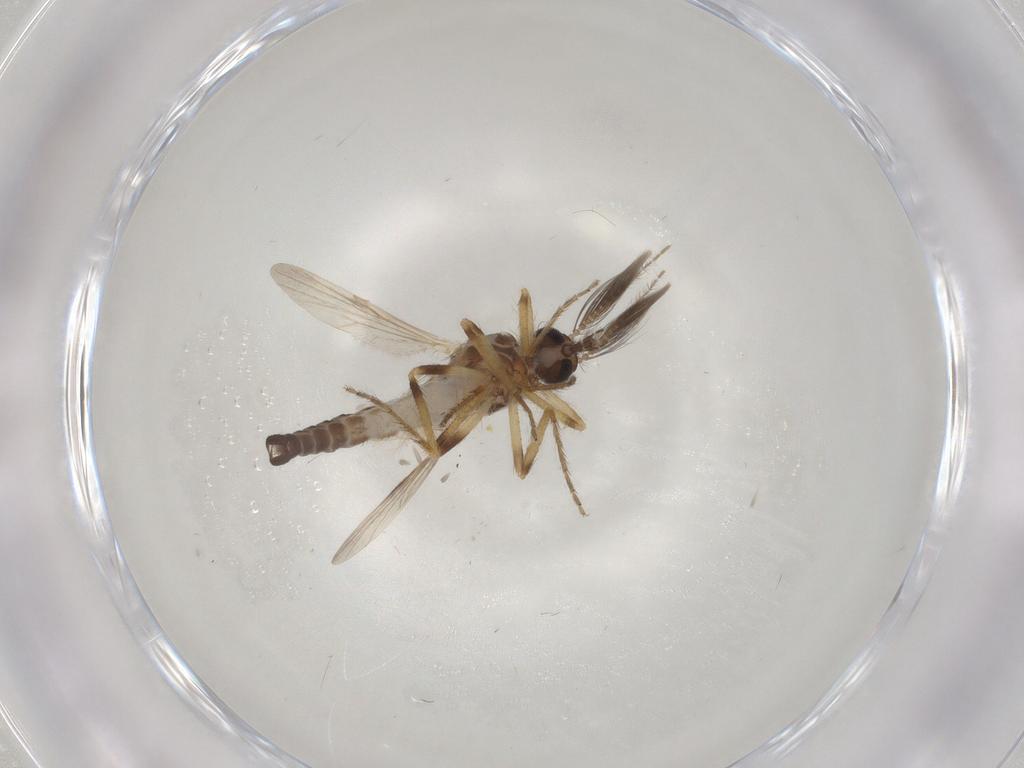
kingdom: Animalia
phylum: Arthropoda
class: Insecta
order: Diptera
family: Ceratopogonidae
